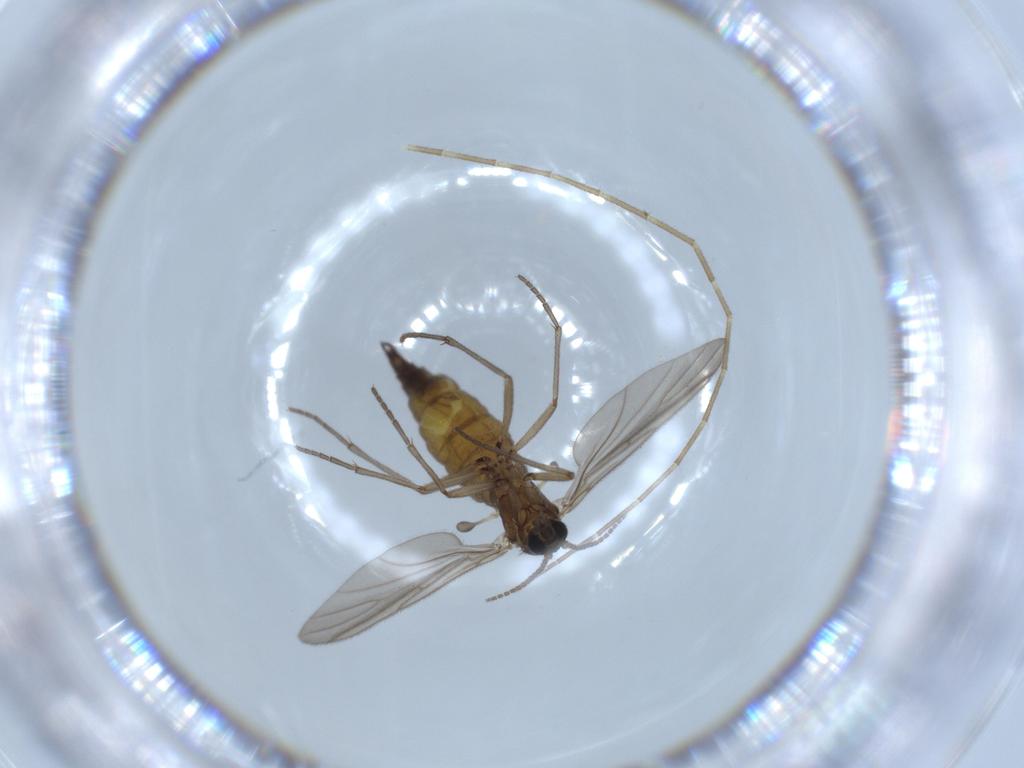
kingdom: Animalia
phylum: Arthropoda
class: Insecta
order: Diptera
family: Sciaridae
